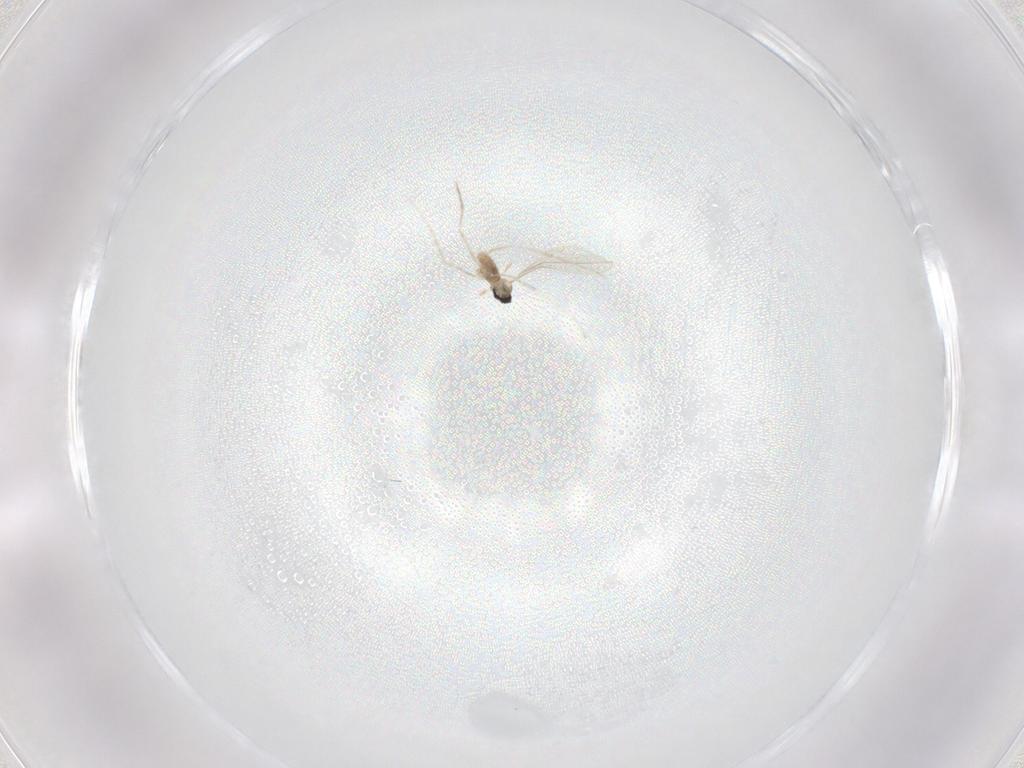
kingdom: Animalia
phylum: Arthropoda
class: Insecta
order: Diptera
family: Cecidomyiidae
